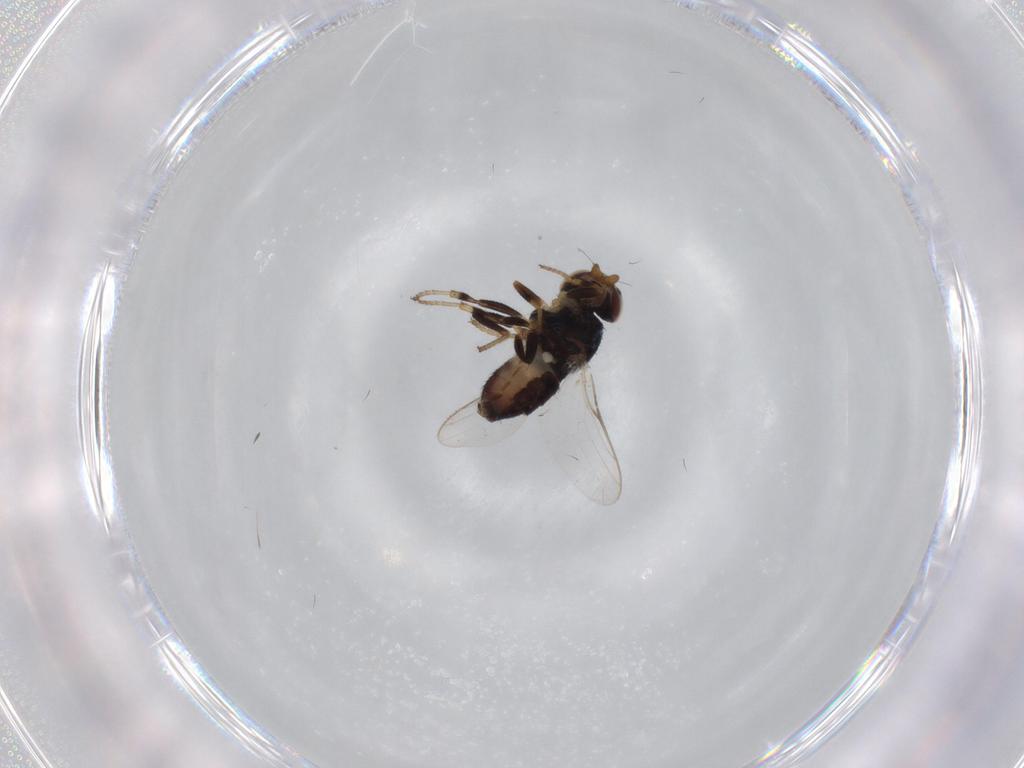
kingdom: Animalia
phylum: Arthropoda
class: Insecta
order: Diptera
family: Chloropidae
